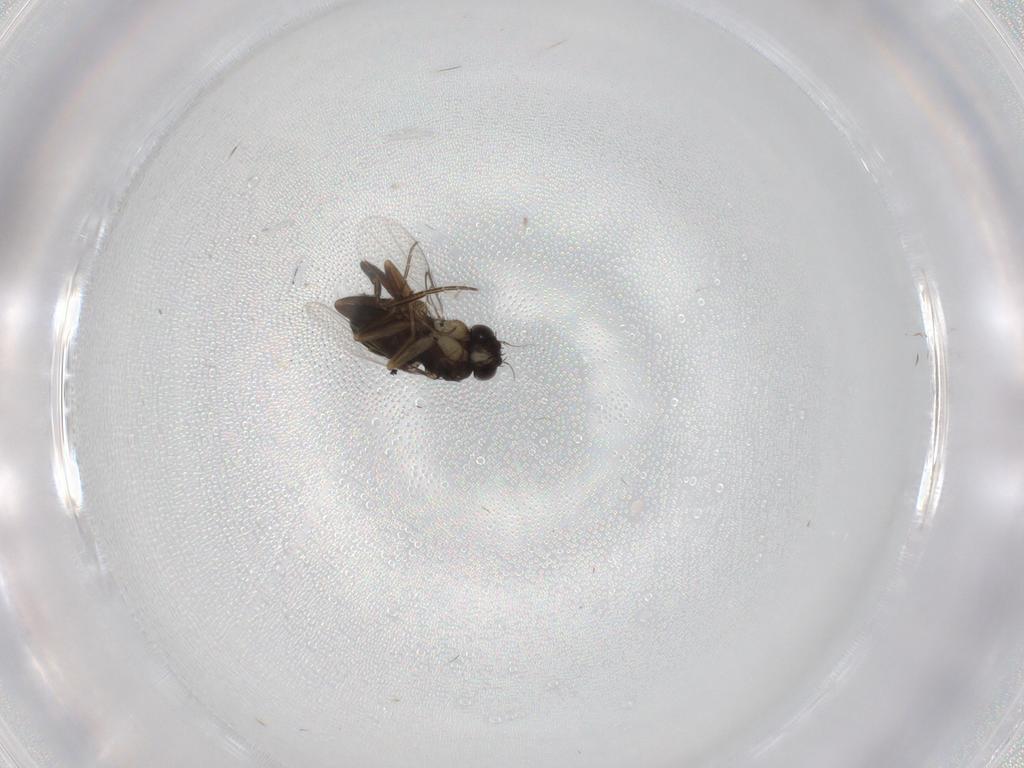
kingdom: Animalia
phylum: Arthropoda
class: Insecta
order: Diptera
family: Phoridae
